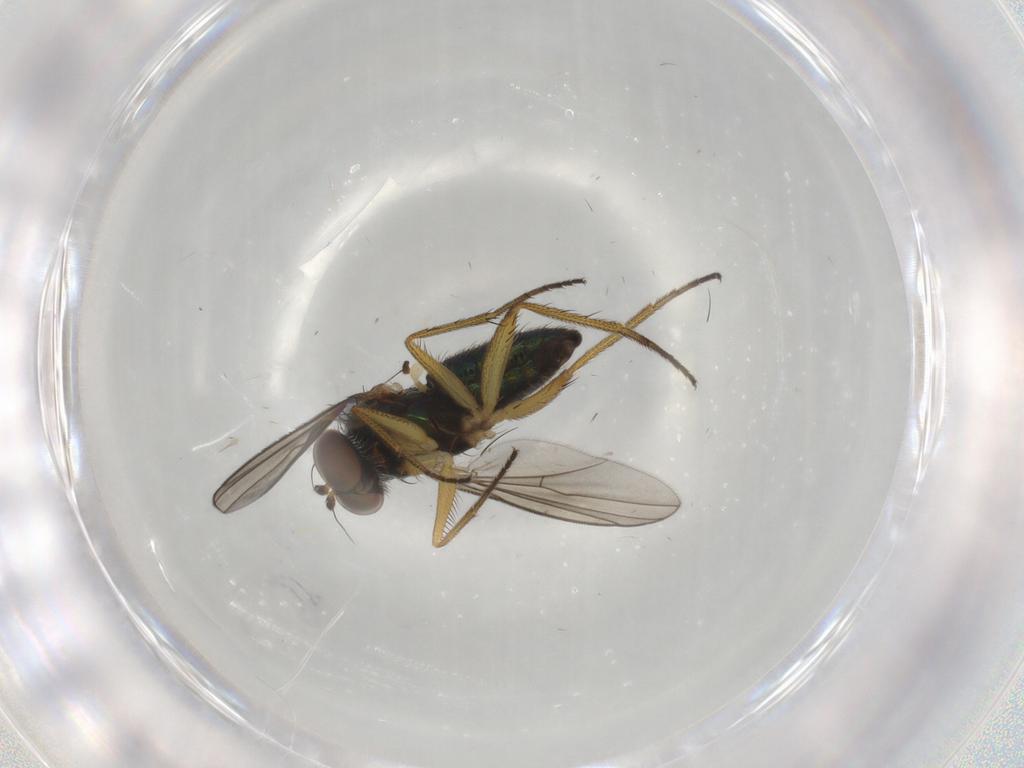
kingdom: Animalia
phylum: Arthropoda
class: Insecta
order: Diptera
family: Dolichopodidae
